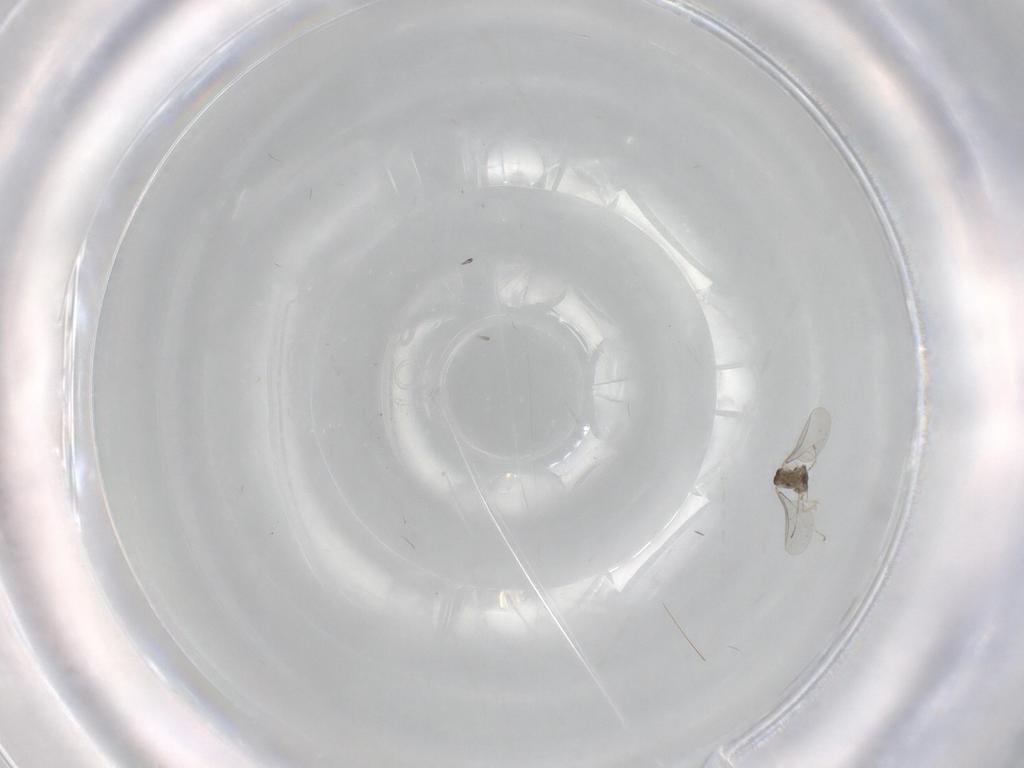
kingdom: Animalia
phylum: Arthropoda
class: Insecta
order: Diptera
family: Cecidomyiidae
